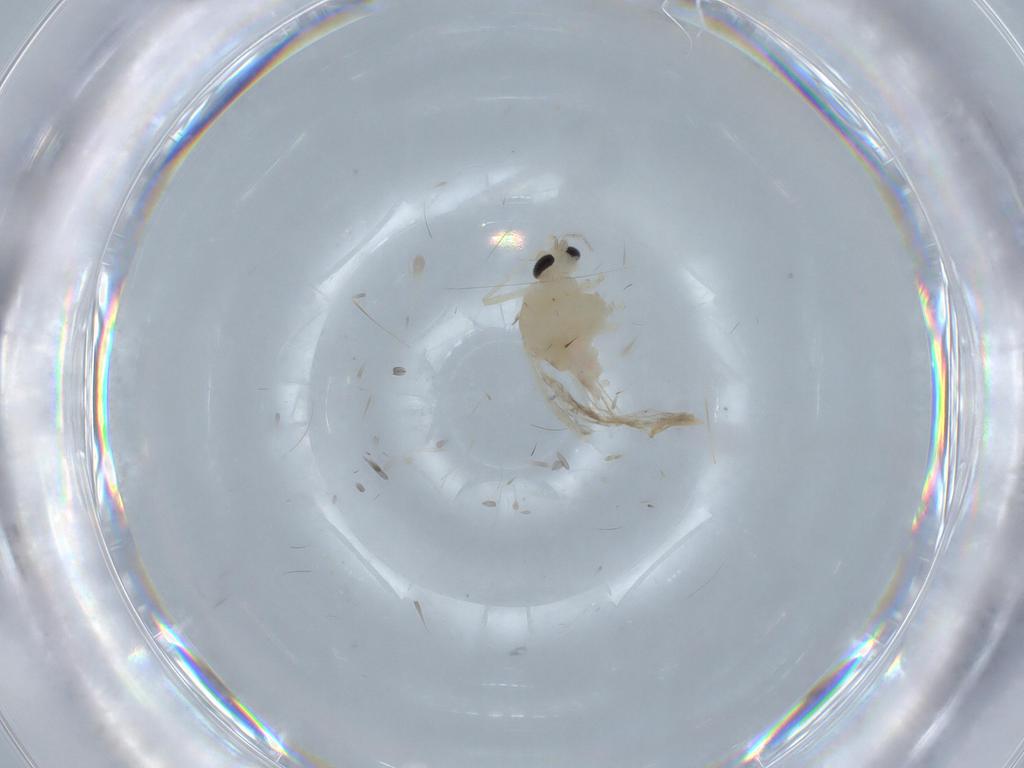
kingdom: Animalia
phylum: Arthropoda
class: Insecta
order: Diptera
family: Chironomidae
